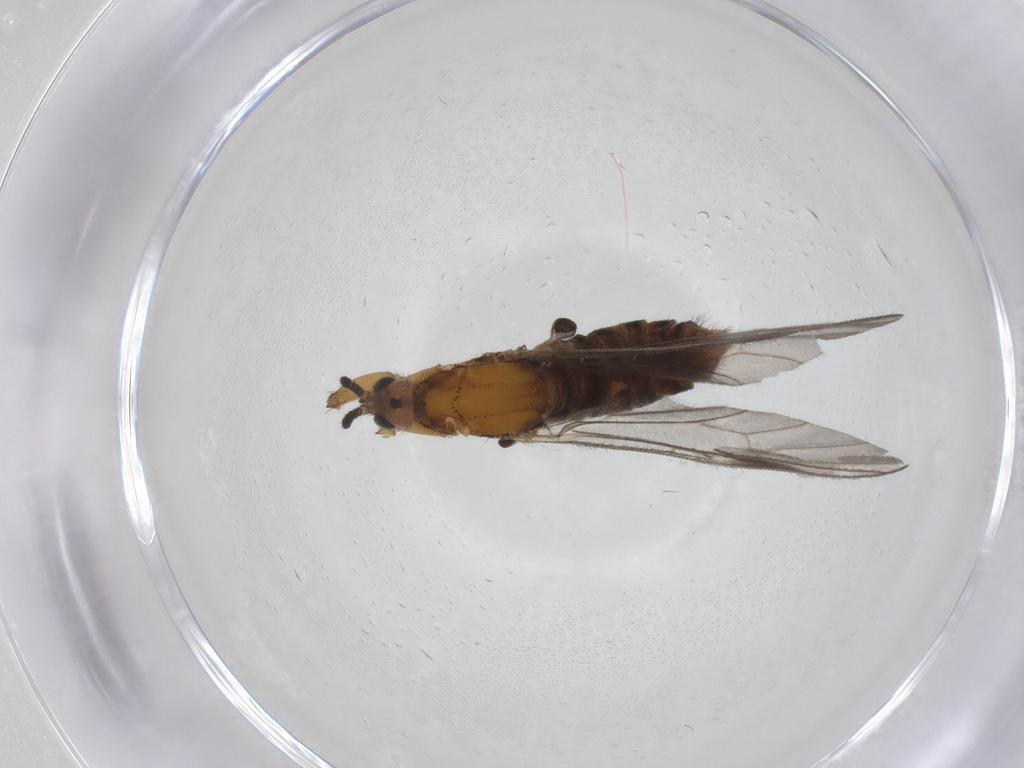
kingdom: Animalia
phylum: Arthropoda
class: Insecta
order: Diptera
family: Bibionidae
